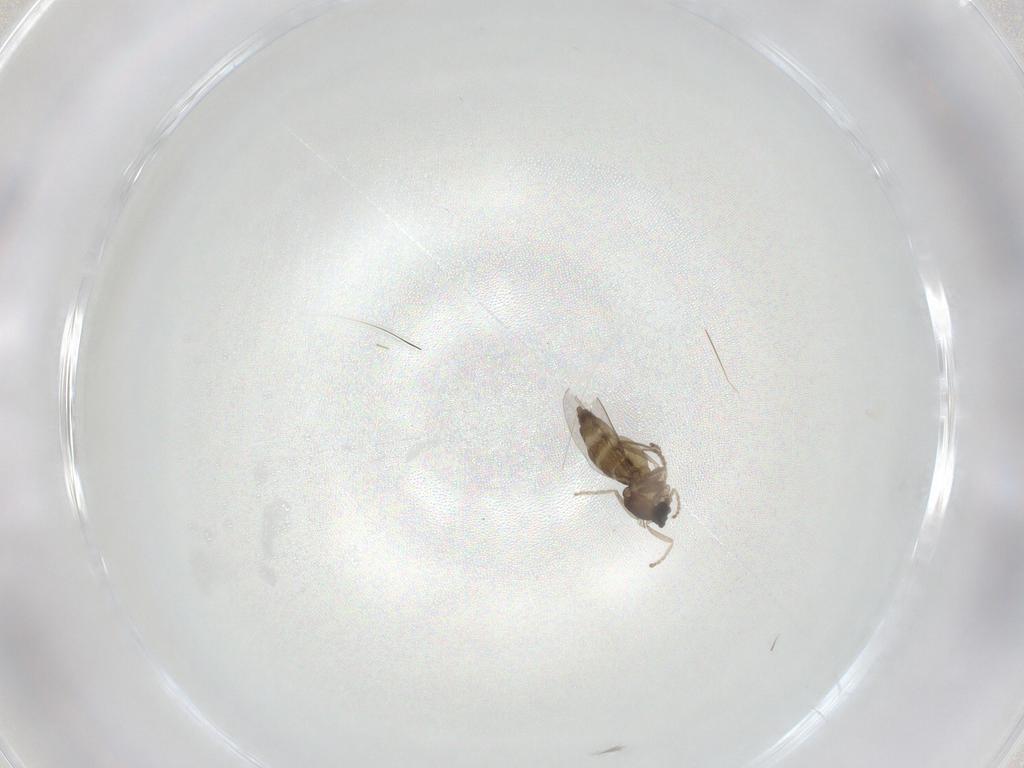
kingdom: Animalia
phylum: Arthropoda
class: Insecta
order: Diptera
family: Cecidomyiidae
